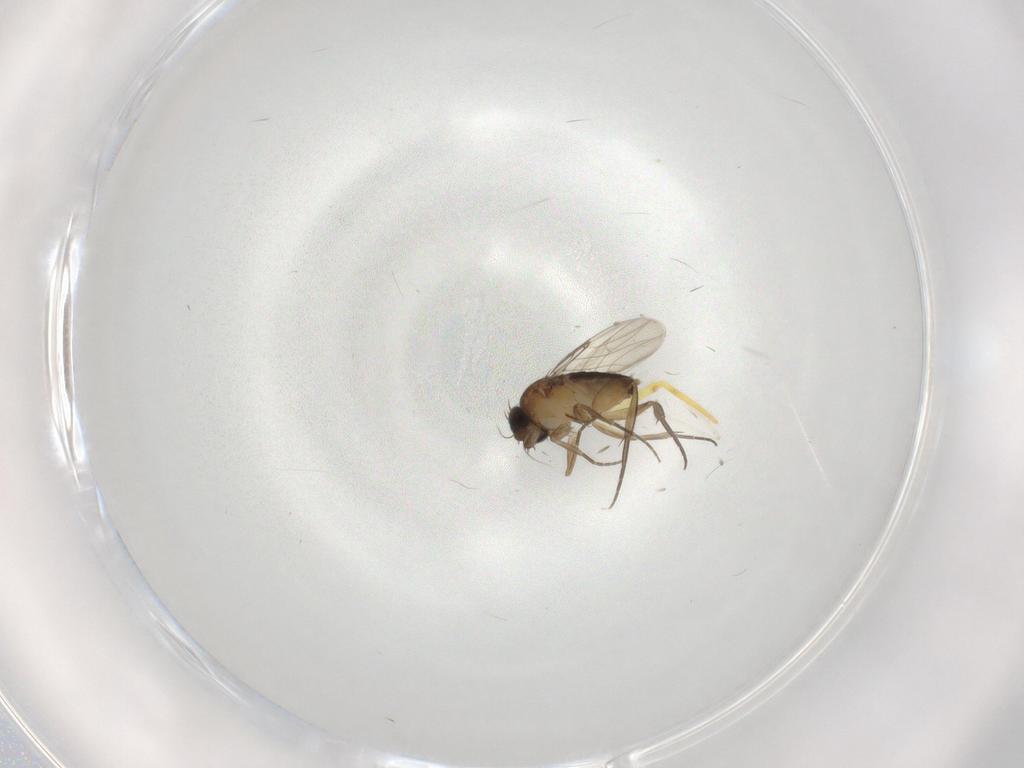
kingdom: Animalia
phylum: Arthropoda
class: Insecta
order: Diptera
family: Phoridae
